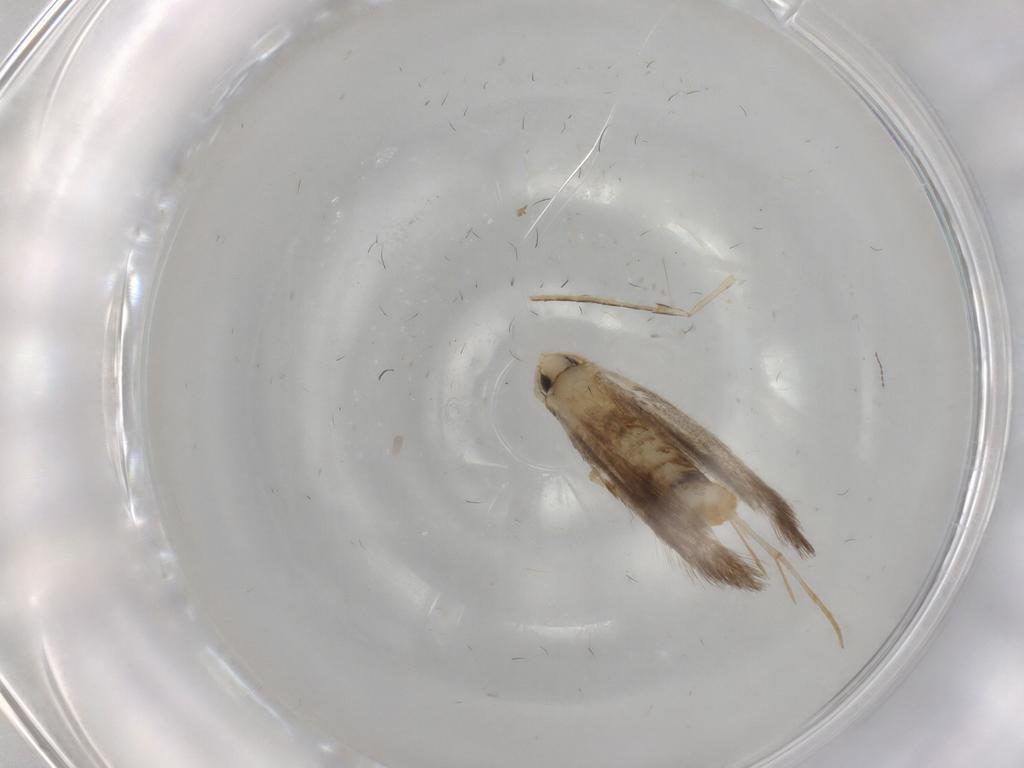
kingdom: Animalia
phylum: Arthropoda
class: Insecta
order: Lepidoptera
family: Tineidae
